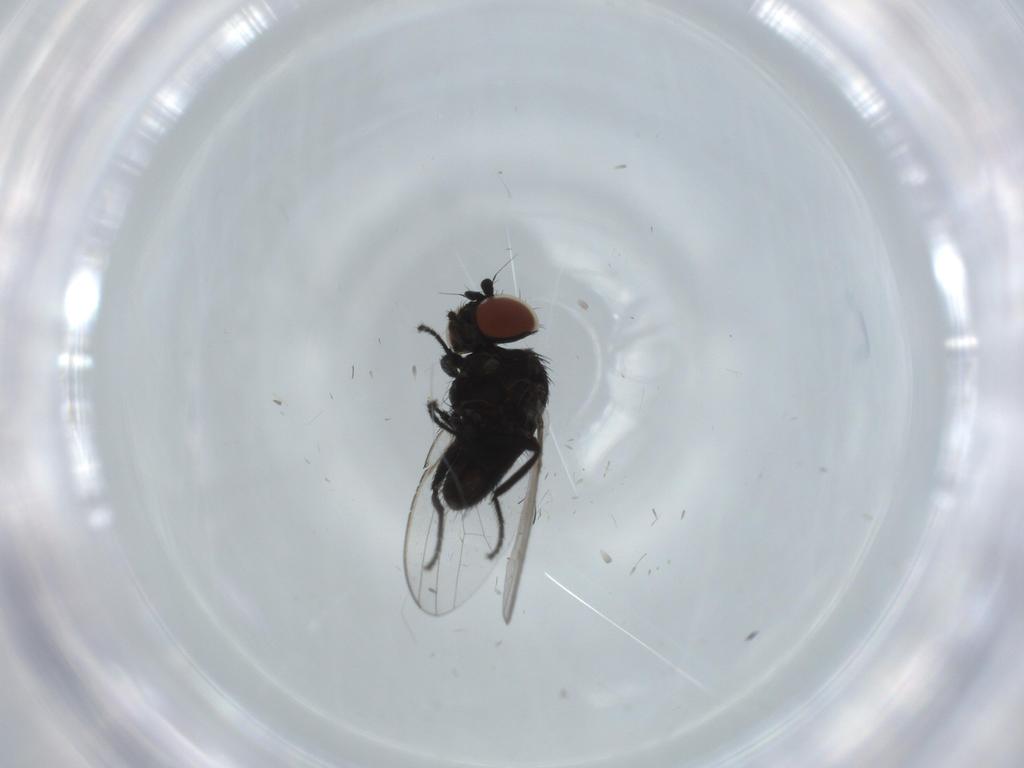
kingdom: Animalia
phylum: Arthropoda
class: Insecta
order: Diptera
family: Milichiidae
